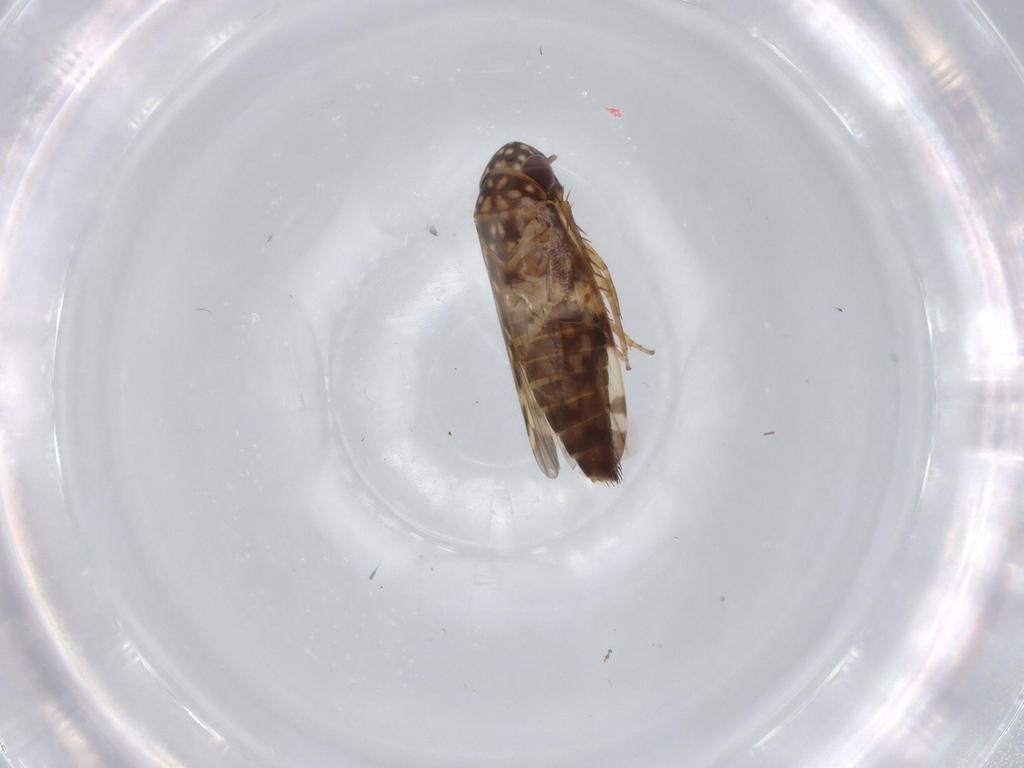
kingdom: Animalia
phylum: Arthropoda
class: Insecta
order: Hemiptera
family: Cicadellidae
